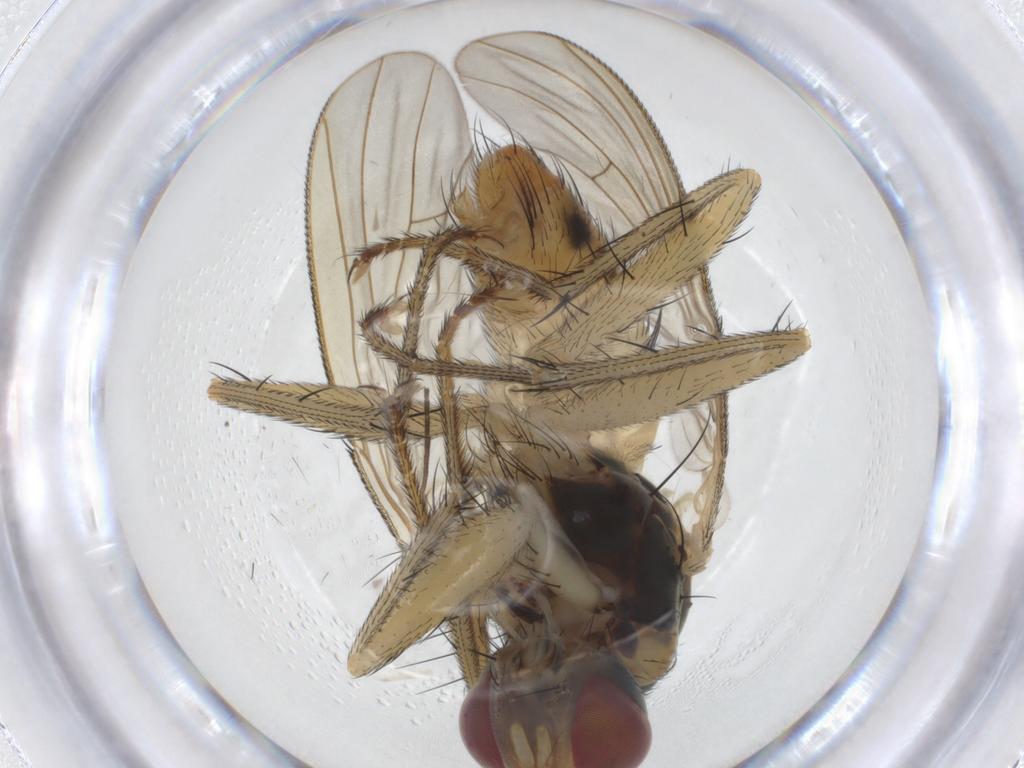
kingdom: Animalia
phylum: Arthropoda
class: Insecta
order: Diptera
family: Muscidae
